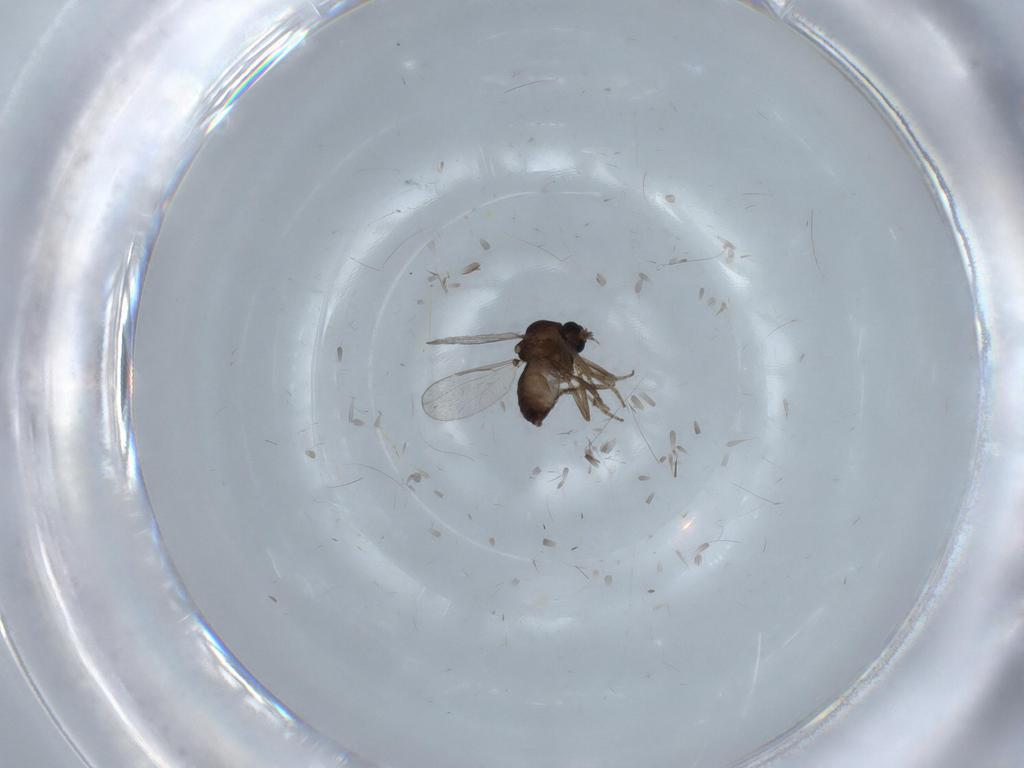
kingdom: Animalia
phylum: Arthropoda
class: Insecta
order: Diptera
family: Ceratopogonidae
